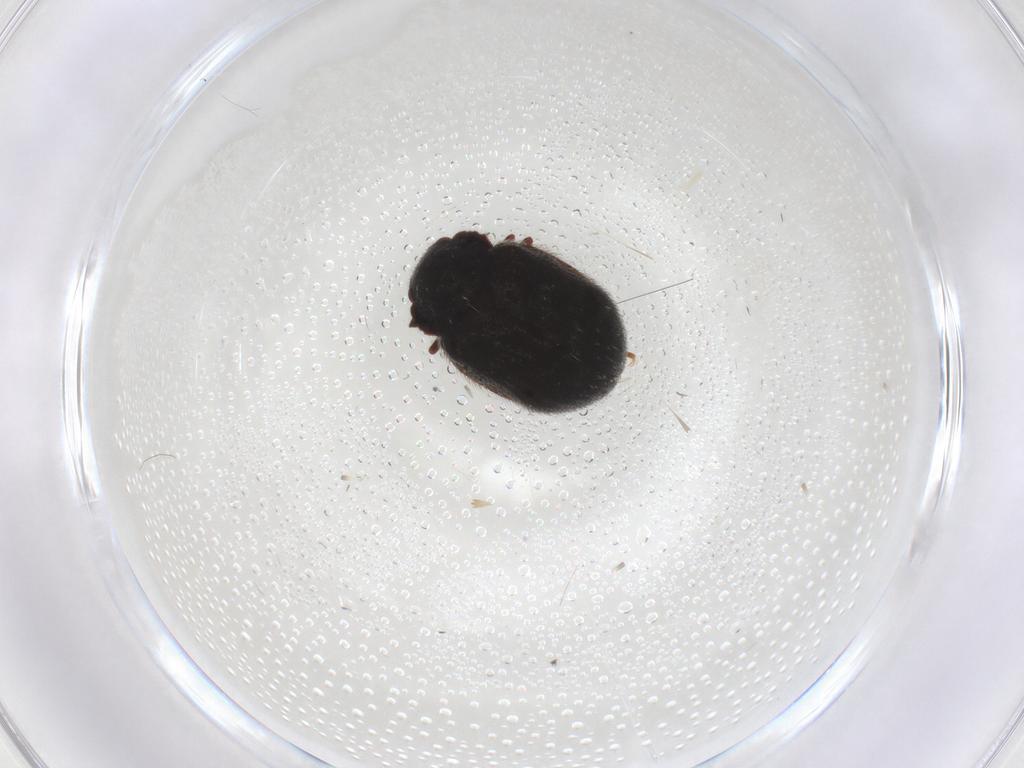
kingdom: Animalia
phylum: Arthropoda
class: Insecta
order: Coleoptera
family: Sphindidae
